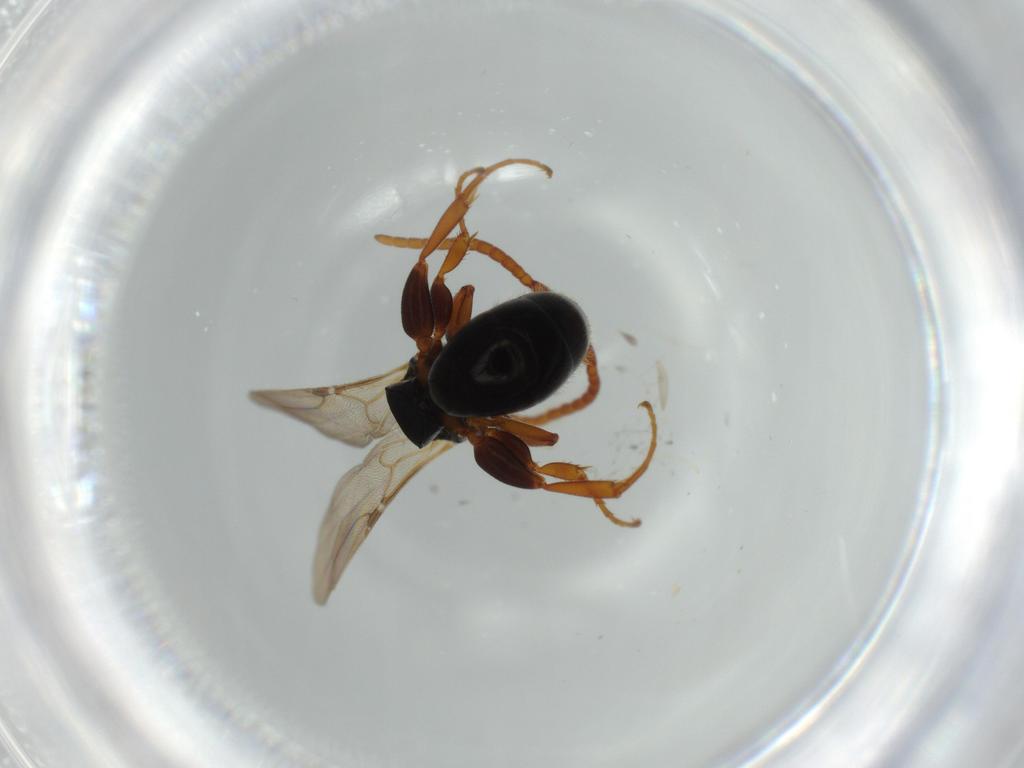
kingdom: Animalia
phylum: Arthropoda
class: Insecta
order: Hymenoptera
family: Bethylidae
